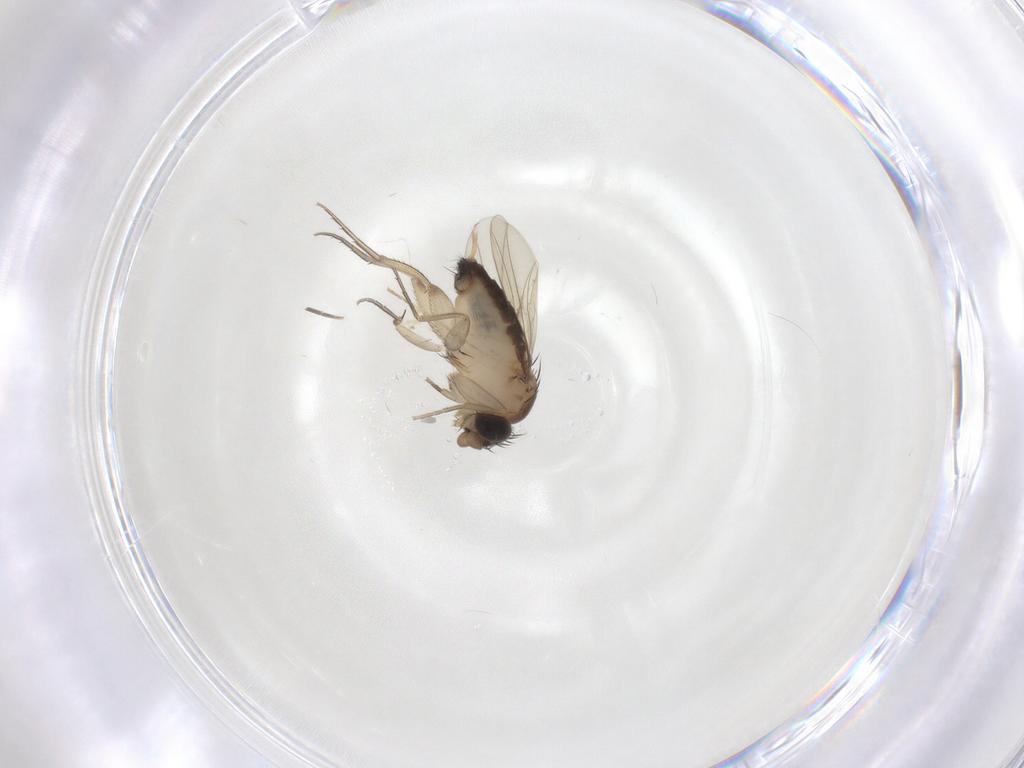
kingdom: Animalia
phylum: Arthropoda
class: Insecta
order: Diptera
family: Phoridae
